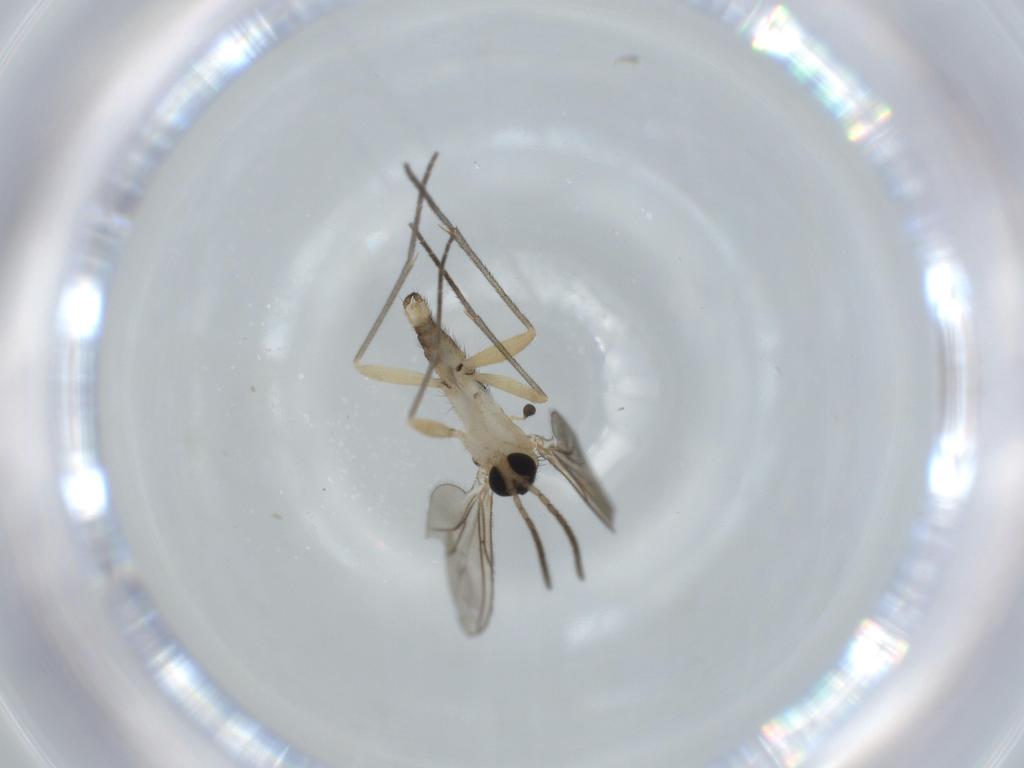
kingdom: Animalia
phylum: Arthropoda
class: Insecta
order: Diptera
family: Sciaridae
